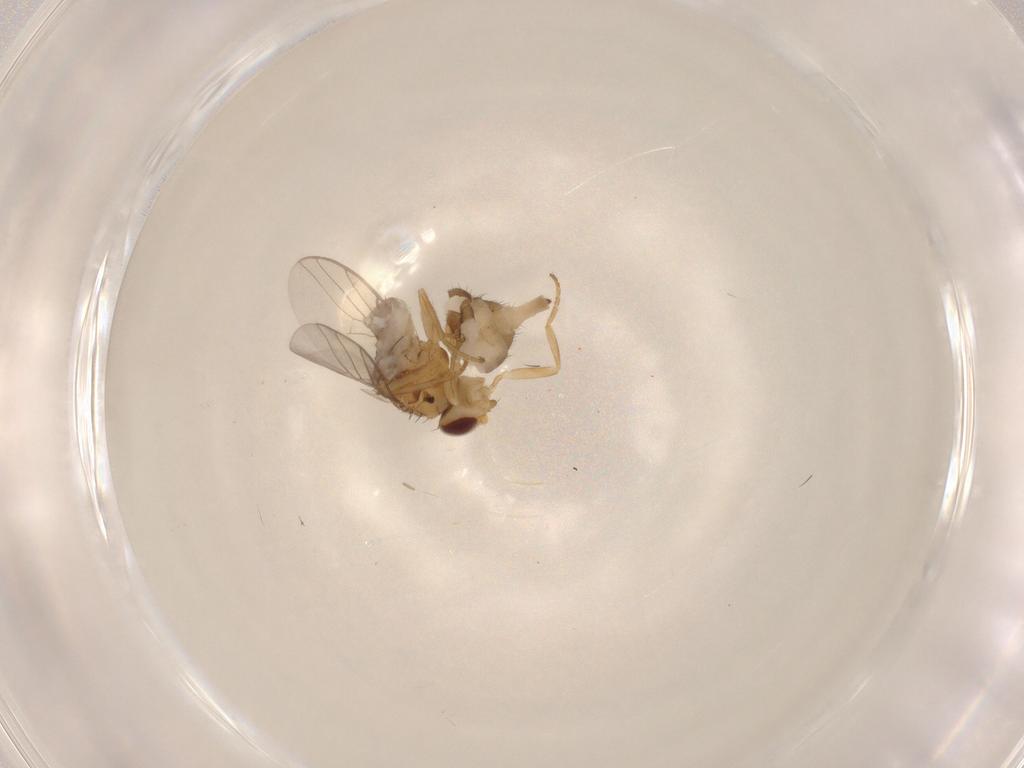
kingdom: Animalia
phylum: Arthropoda
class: Insecta
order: Diptera
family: Chloropidae
